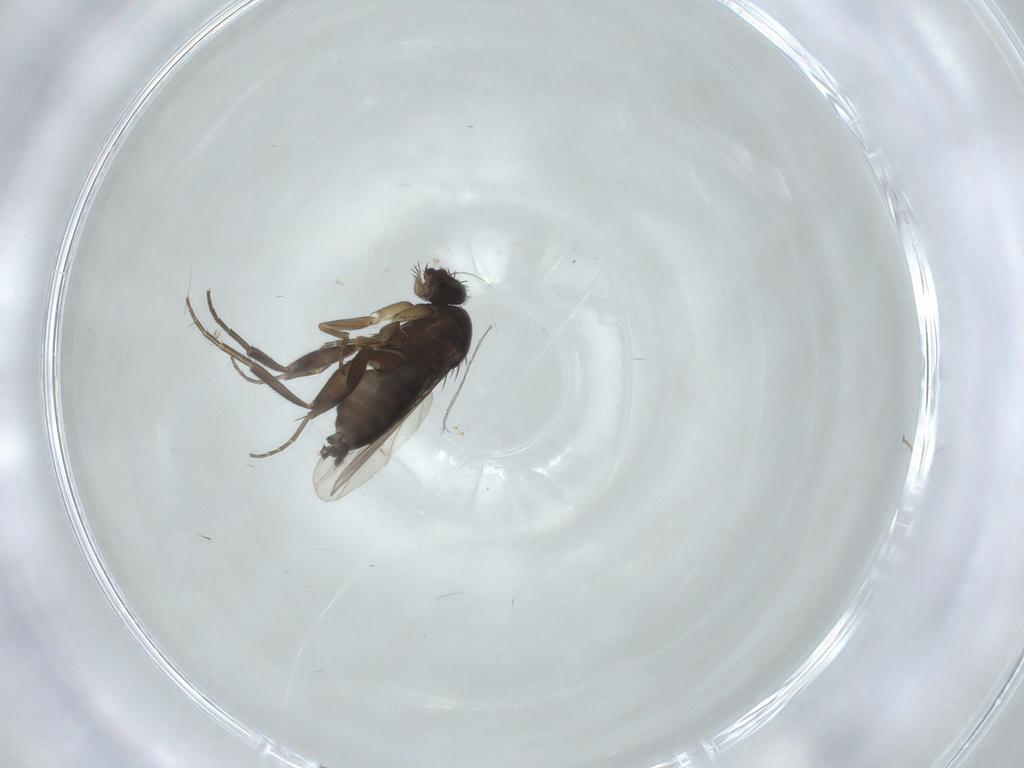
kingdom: Animalia
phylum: Arthropoda
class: Insecta
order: Diptera
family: Phoridae
